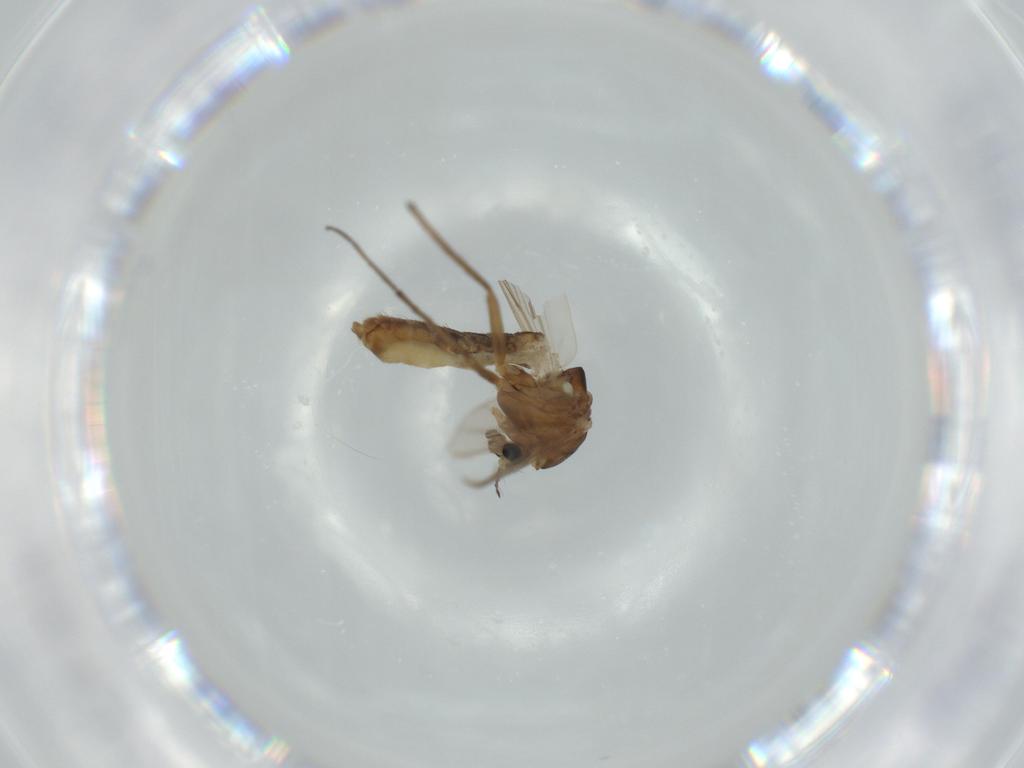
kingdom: Animalia
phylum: Arthropoda
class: Insecta
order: Diptera
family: Chironomidae
